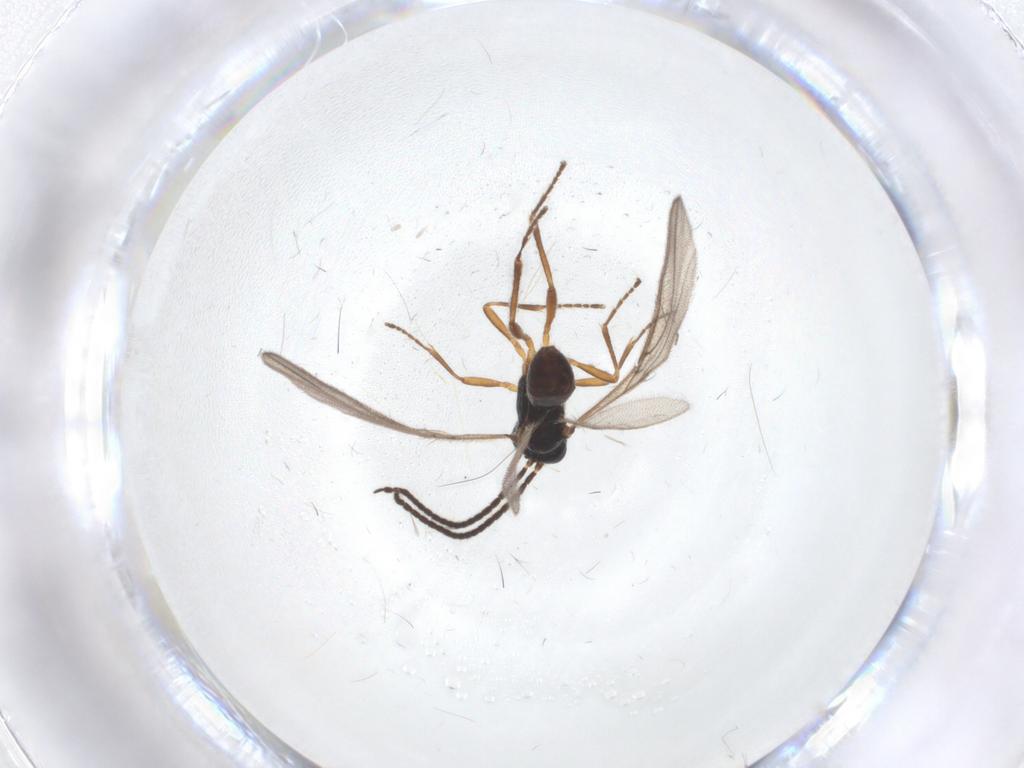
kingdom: Animalia
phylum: Arthropoda
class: Insecta
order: Hymenoptera
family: Braconidae
